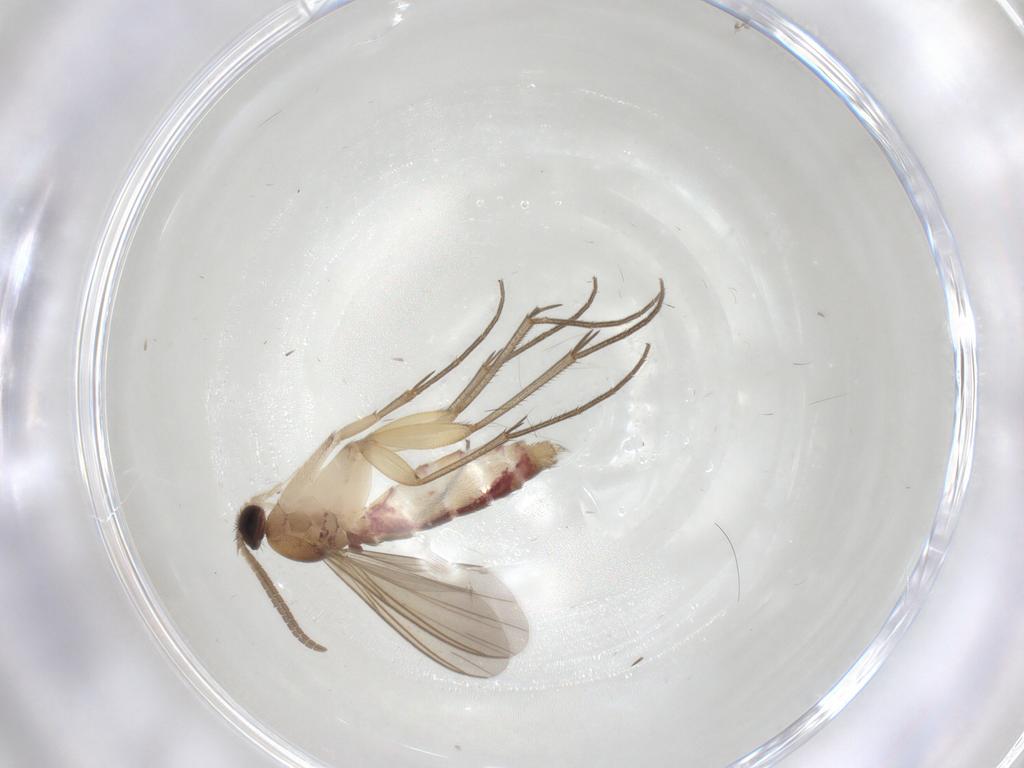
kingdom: Animalia
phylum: Arthropoda
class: Insecta
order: Diptera
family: Mycetophilidae
